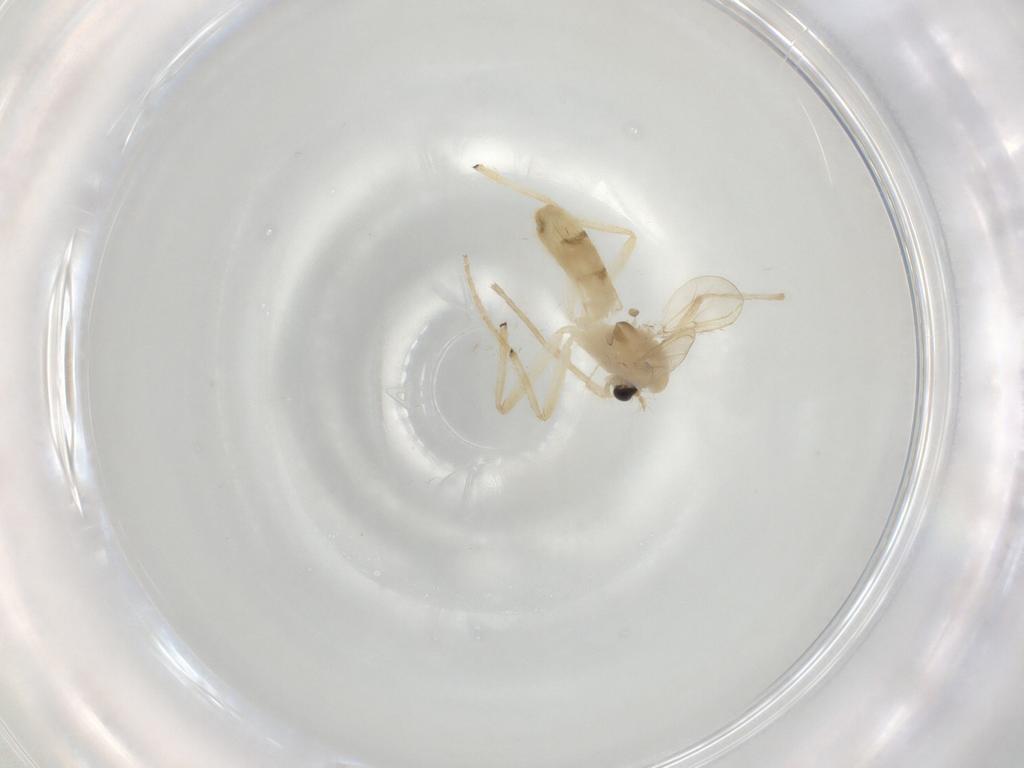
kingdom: Animalia
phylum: Arthropoda
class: Insecta
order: Diptera
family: Chironomidae
